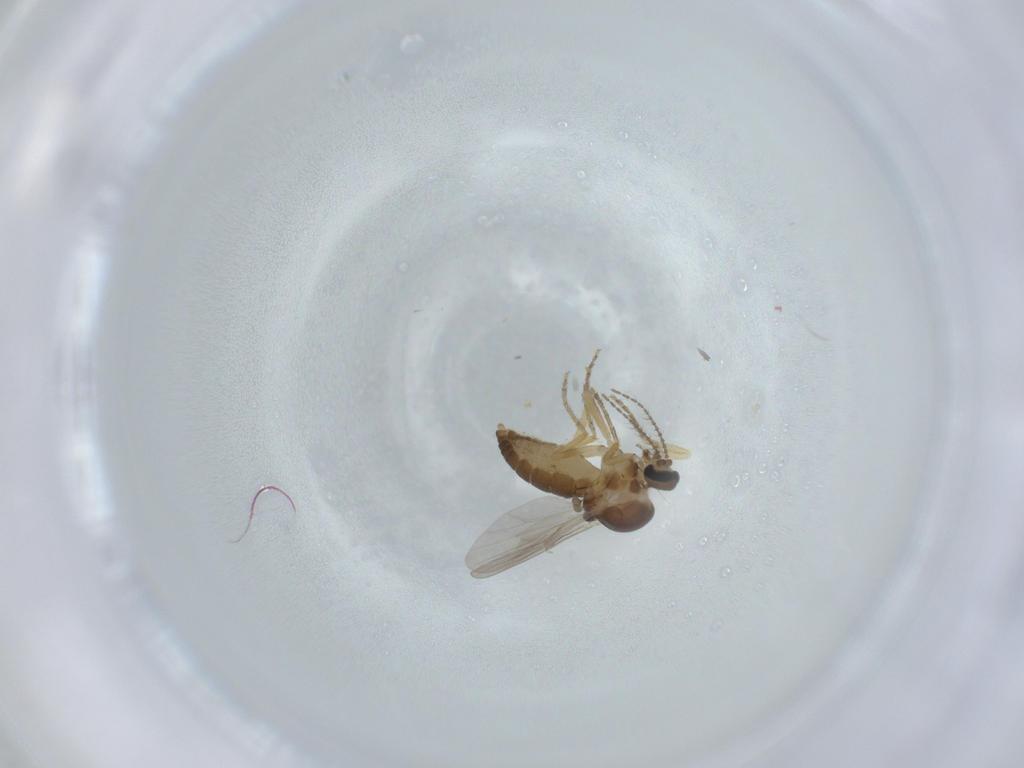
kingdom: Animalia
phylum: Arthropoda
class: Insecta
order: Diptera
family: Ceratopogonidae
